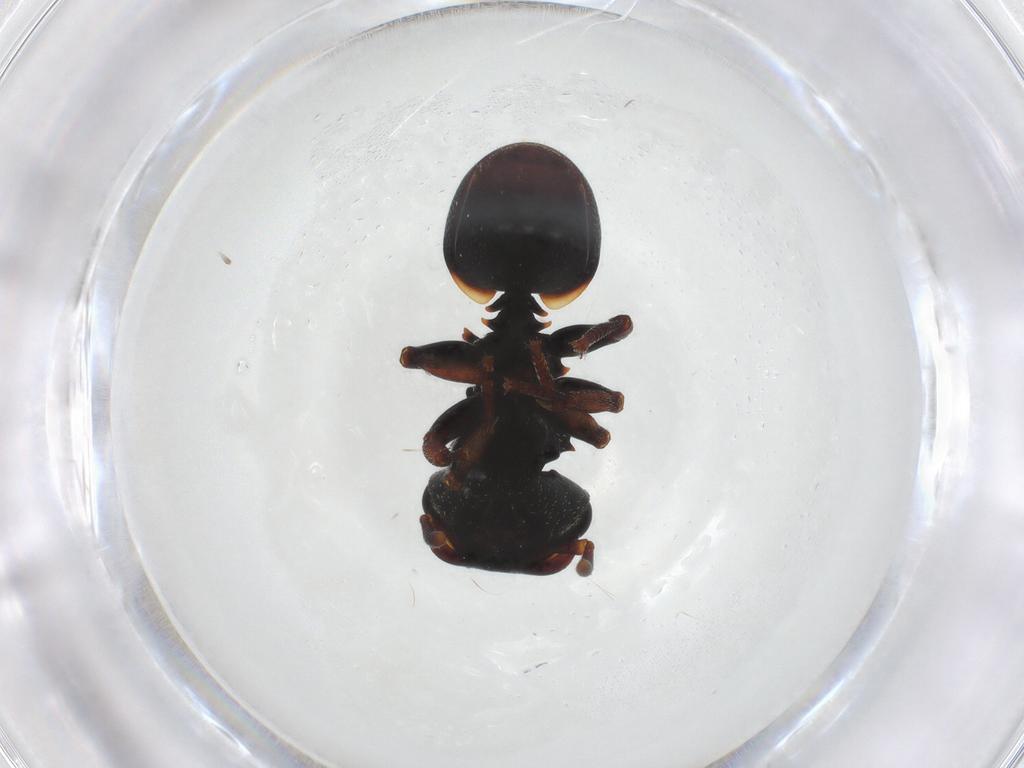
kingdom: Animalia
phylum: Arthropoda
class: Insecta
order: Hymenoptera
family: Formicidae
